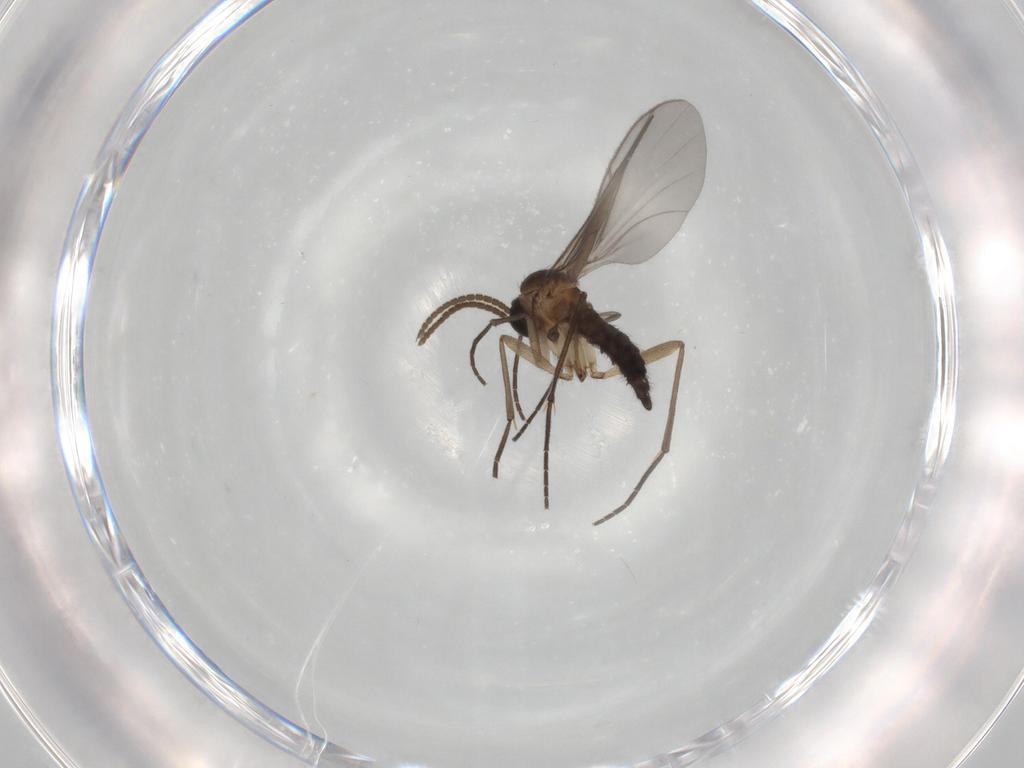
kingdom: Animalia
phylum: Arthropoda
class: Insecta
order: Diptera
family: Dolichopodidae
